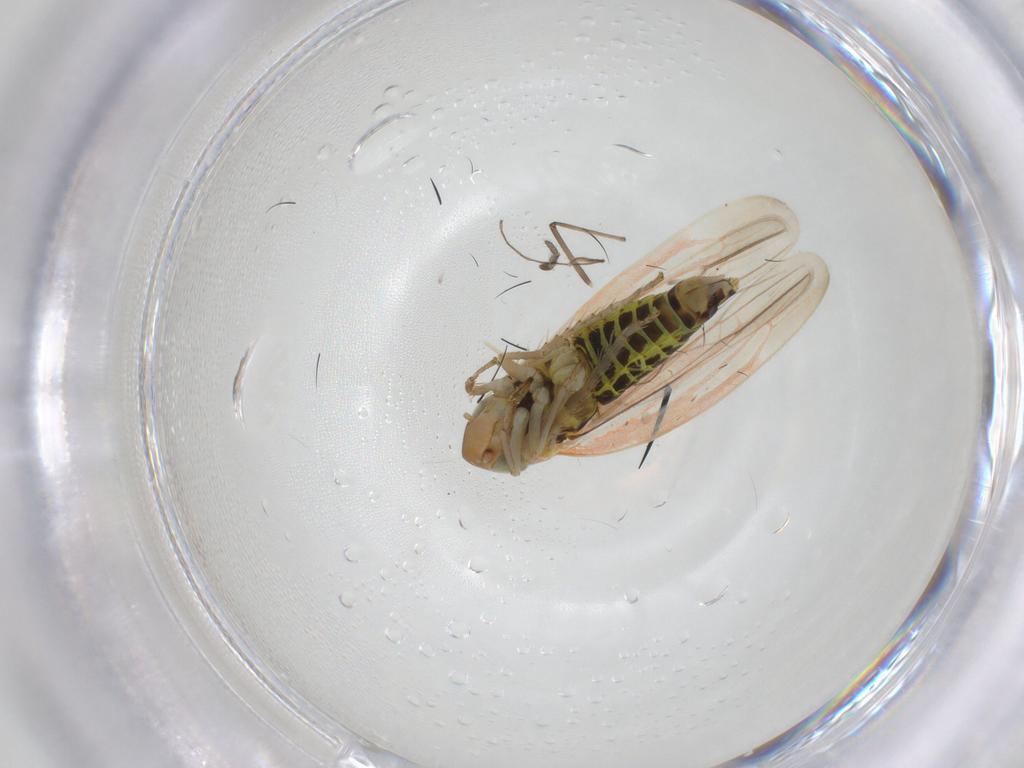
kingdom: Animalia
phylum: Arthropoda
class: Insecta
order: Hemiptera
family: Cicadellidae
